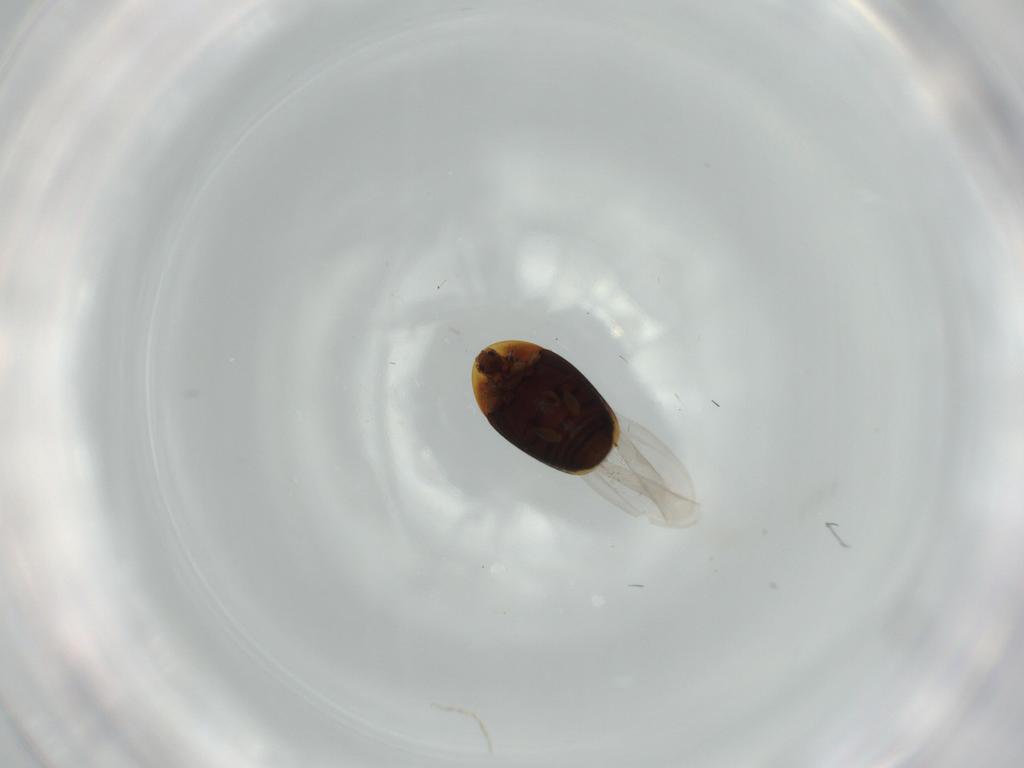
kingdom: Animalia
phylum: Arthropoda
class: Insecta
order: Coleoptera
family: Corylophidae
